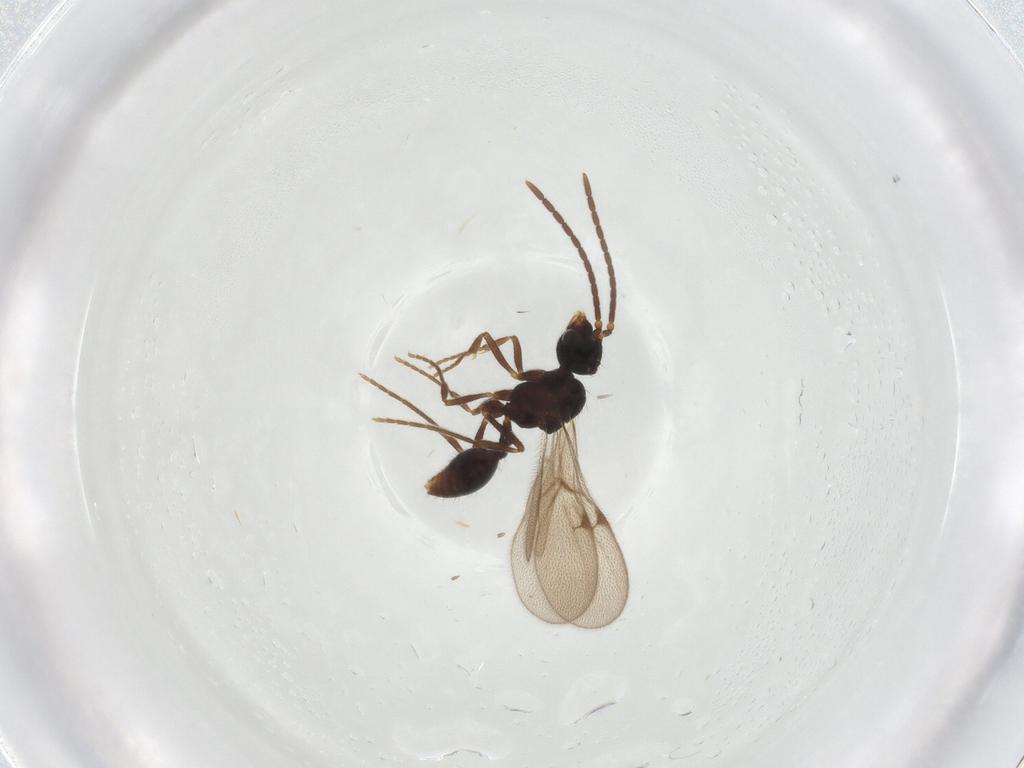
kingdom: Animalia
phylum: Arthropoda
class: Insecta
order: Hymenoptera
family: Formicidae
